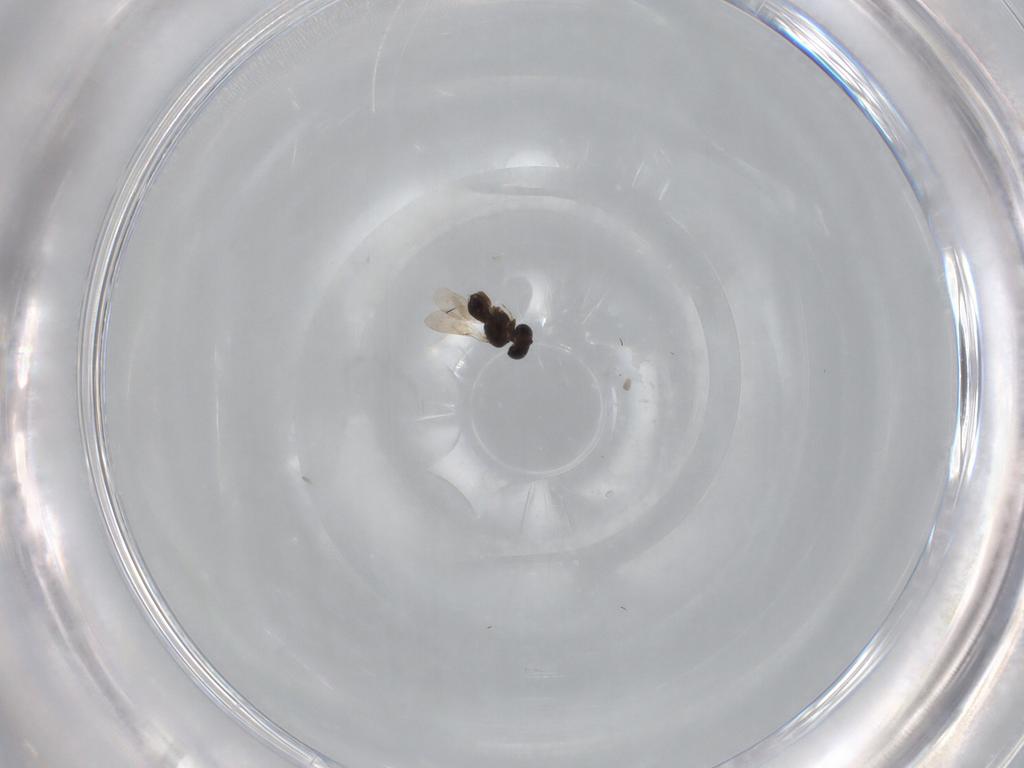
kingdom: Animalia
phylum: Arthropoda
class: Insecta
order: Hymenoptera
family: Scelionidae
